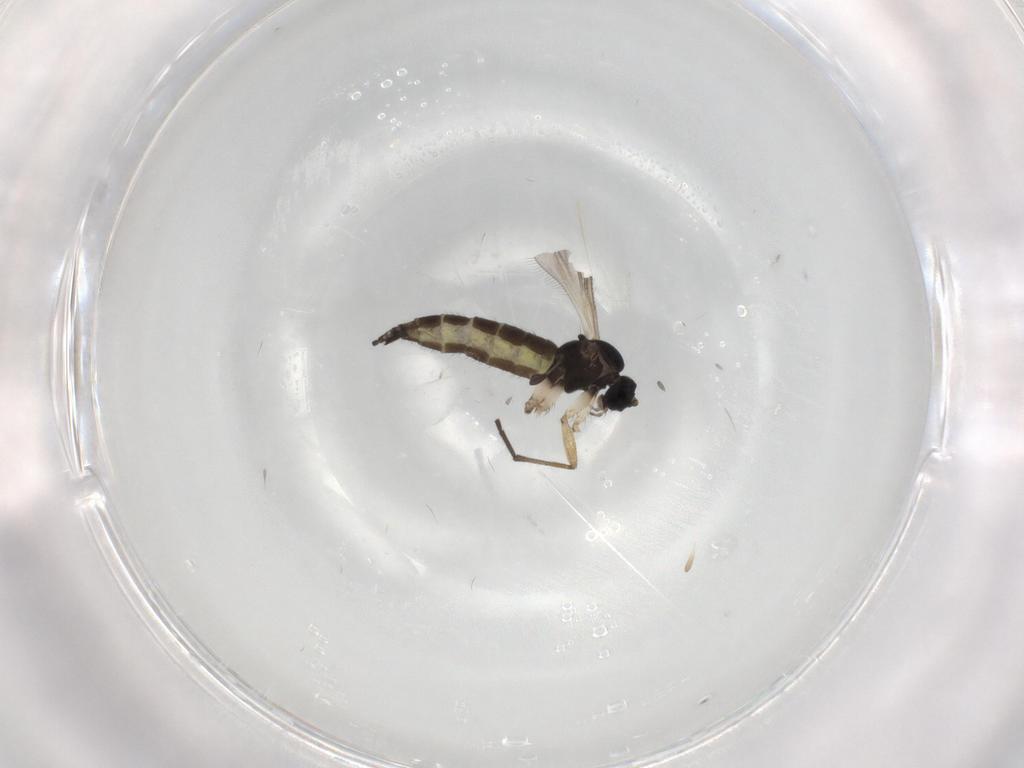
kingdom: Animalia
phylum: Arthropoda
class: Insecta
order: Diptera
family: Sciaridae
